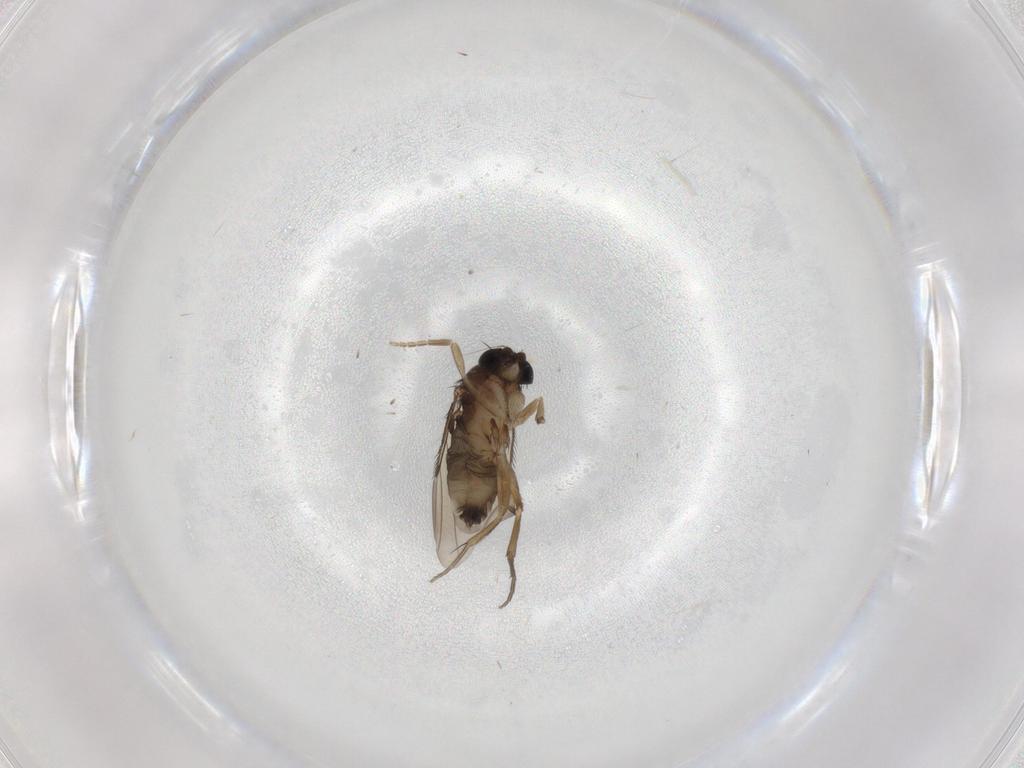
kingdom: Animalia
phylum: Arthropoda
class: Insecta
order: Diptera
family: Phoridae
